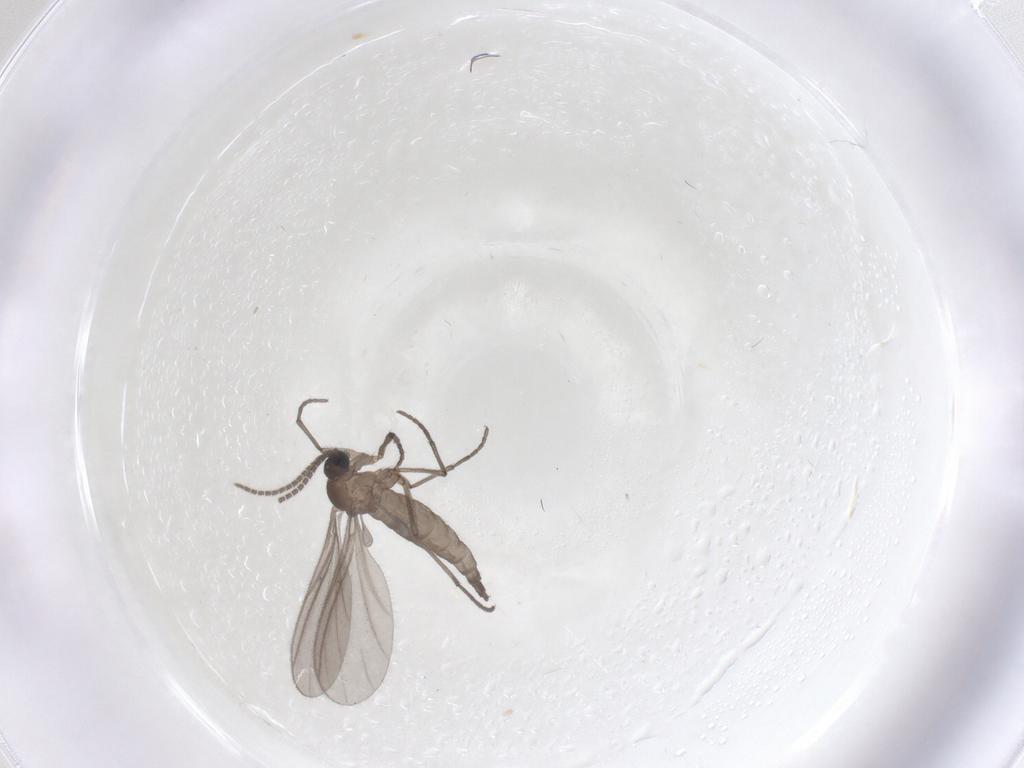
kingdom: Animalia
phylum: Arthropoda
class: Insecta
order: Diptera
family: Sciaridae
